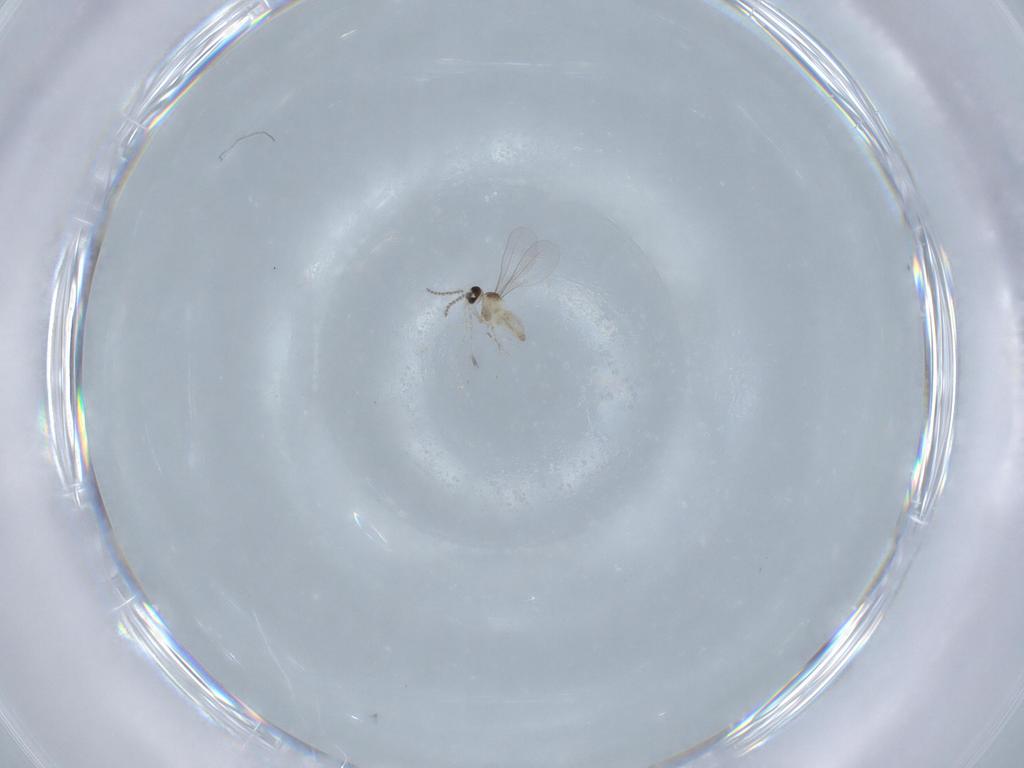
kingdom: Animalia
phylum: Arthropoda
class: Insecta
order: Diptera
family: Cecidomyiidae
